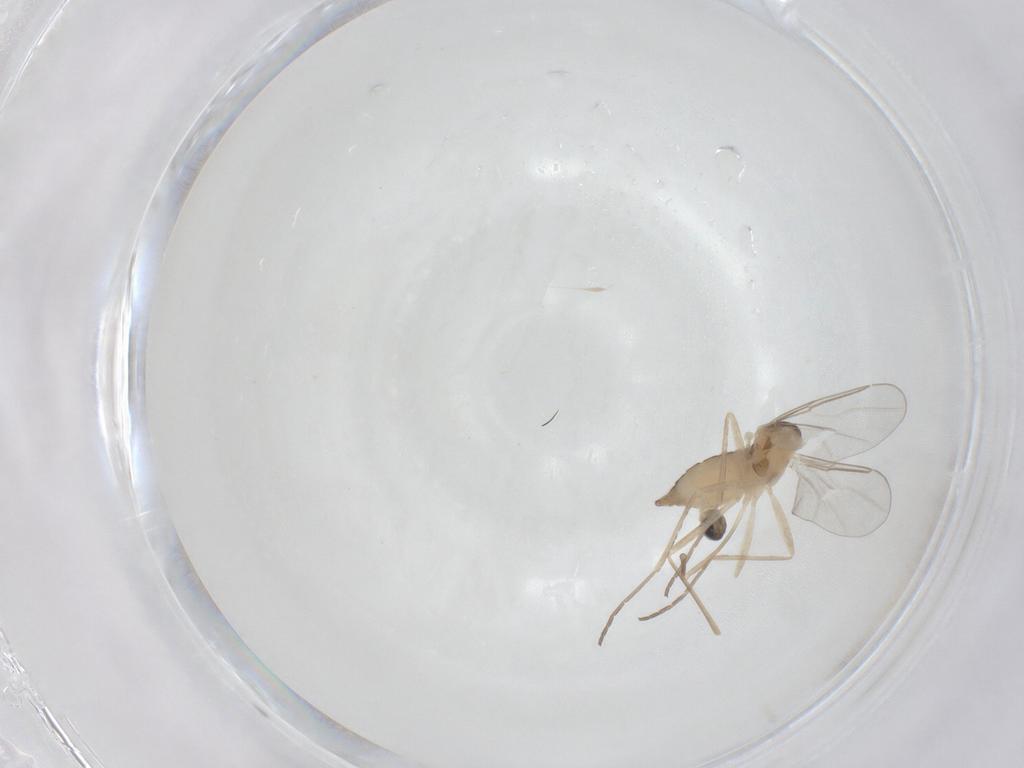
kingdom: Animalia
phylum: Arthropoda
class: Insecta
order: Diptera
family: Cecidomyiidae
